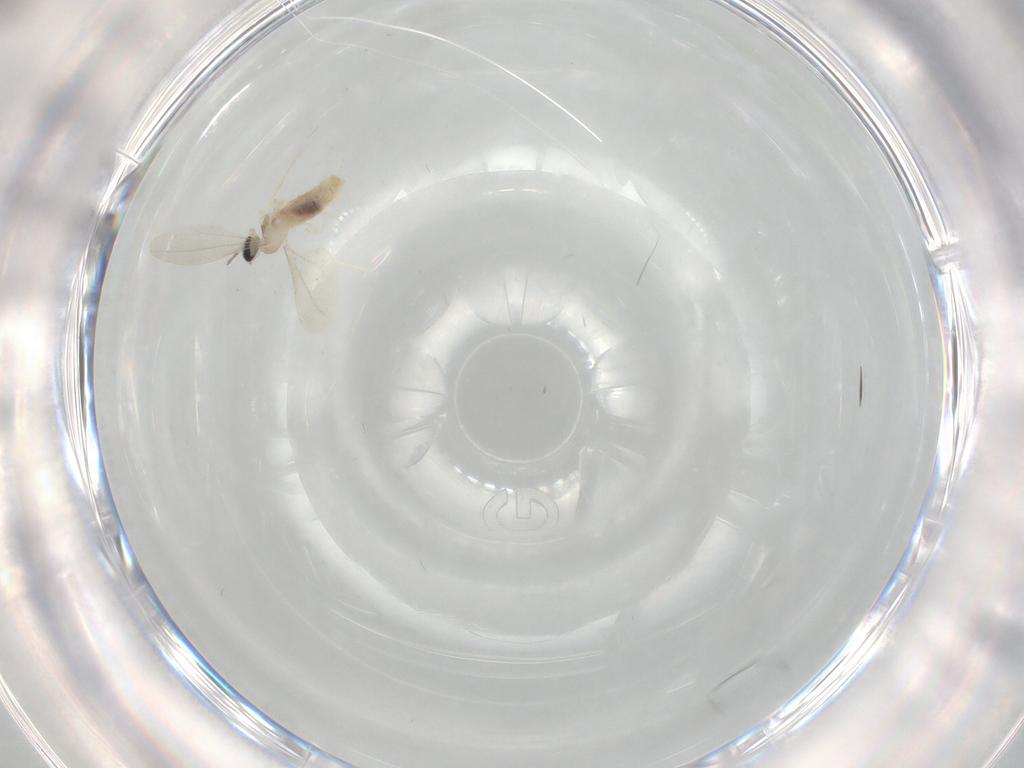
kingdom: Animalia
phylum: Arthropoda
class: Insecta
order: Diptera
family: Cecidomyiidae
